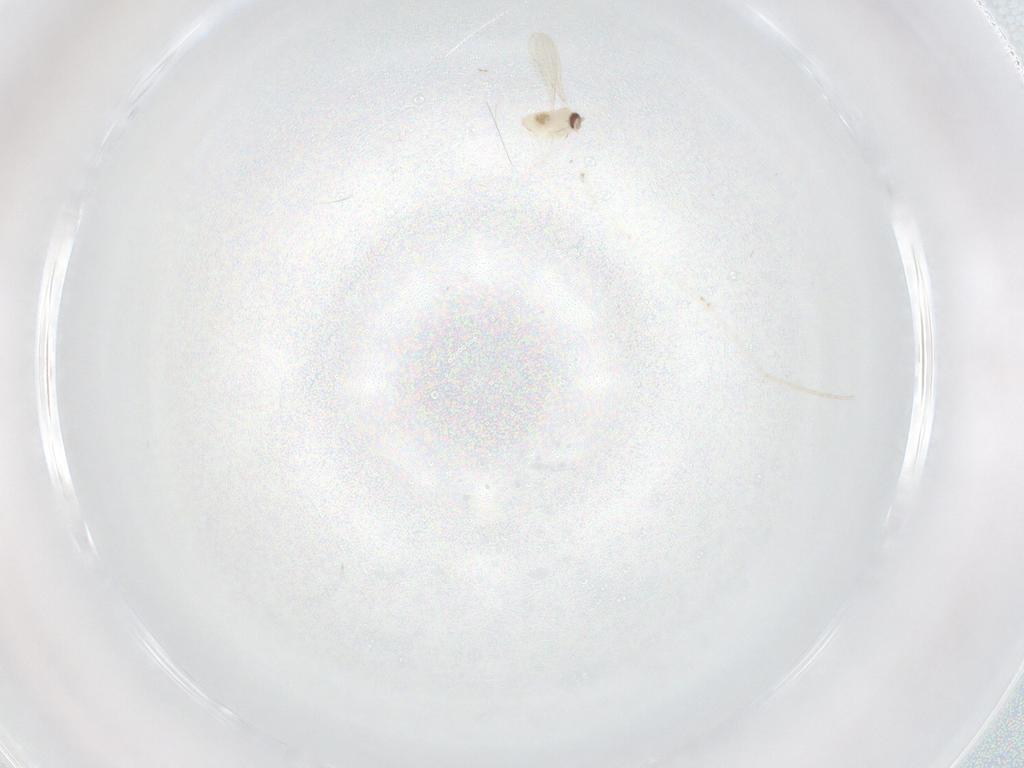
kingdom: Animalia
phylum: Arthropoda
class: Insecta
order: Diptera
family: Cecidomyiidae
